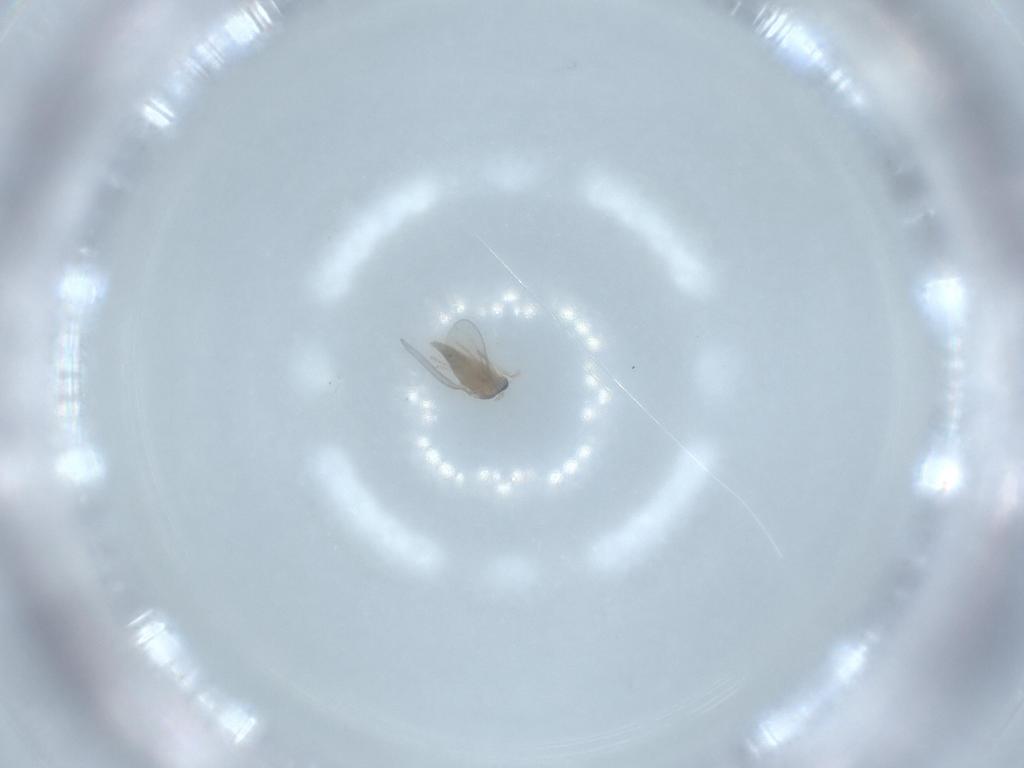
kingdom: Animalia
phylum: Arthropoda
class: Insecta
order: Diptera
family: Cecidomyiidae
